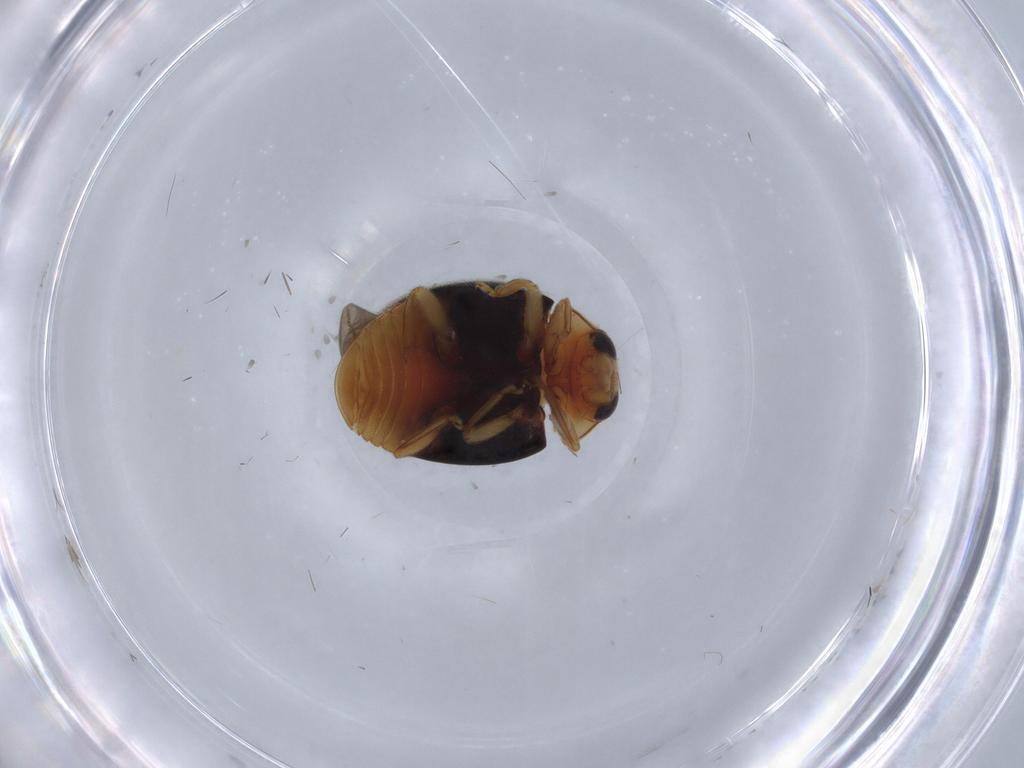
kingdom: Animalia
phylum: Arthropoda
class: Insecta
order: Coleoptera
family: Coccinellidae
